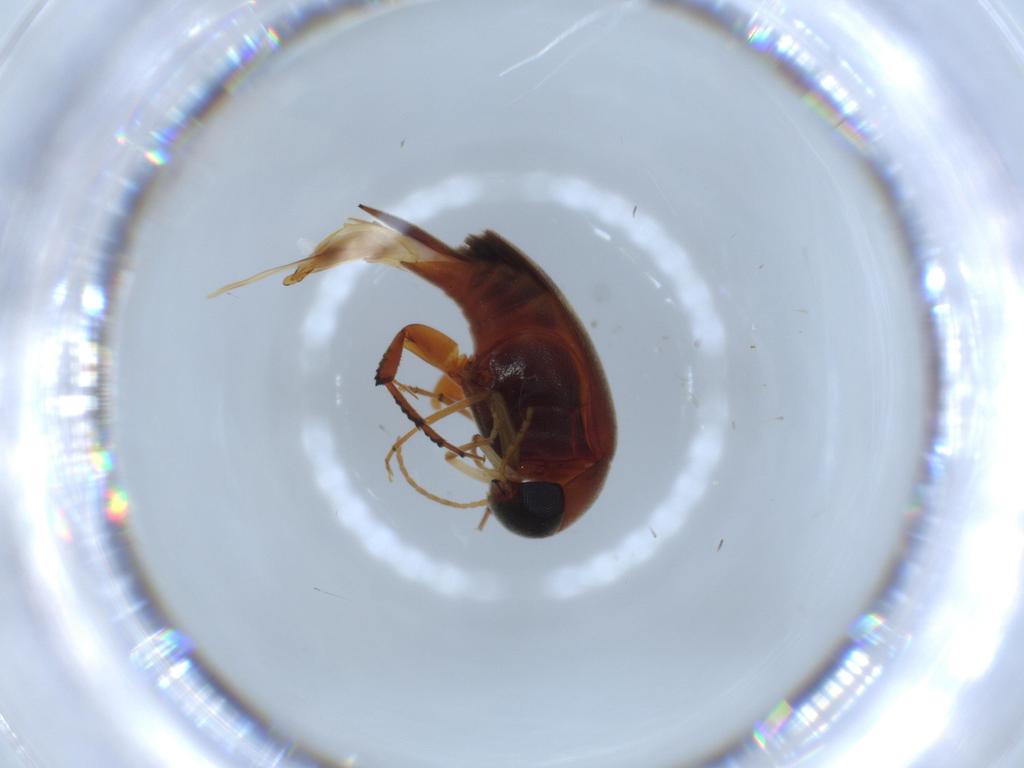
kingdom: Animalia
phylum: Arthropoda
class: Insecta
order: Coleoptera
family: Mordellidae
